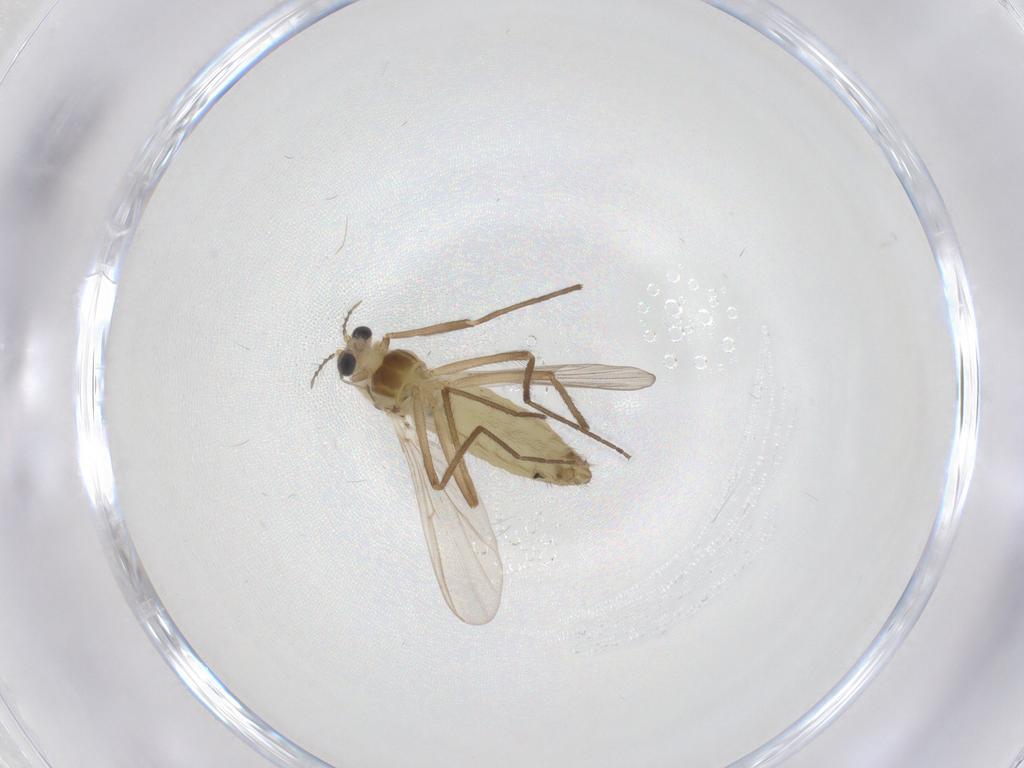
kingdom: Animalia
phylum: Arthropoda
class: Insecta
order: Diptera
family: Chironomidae
